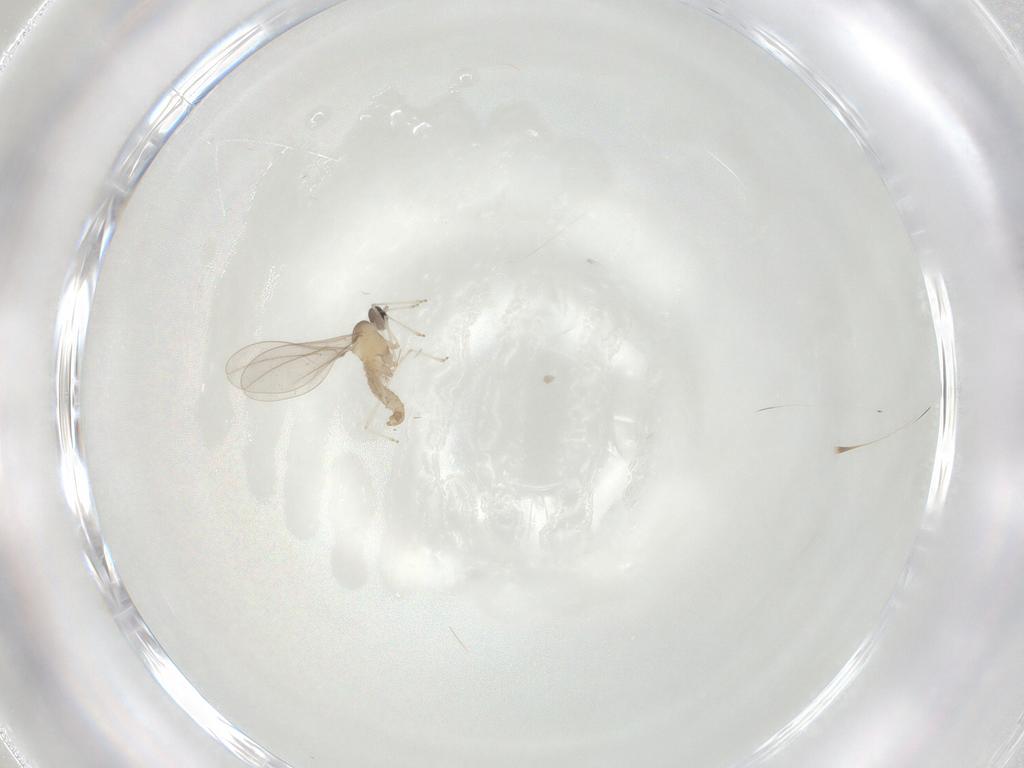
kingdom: Animalia
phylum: Arthropoda
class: Insecta
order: Diptera
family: Cecidomyiidae
